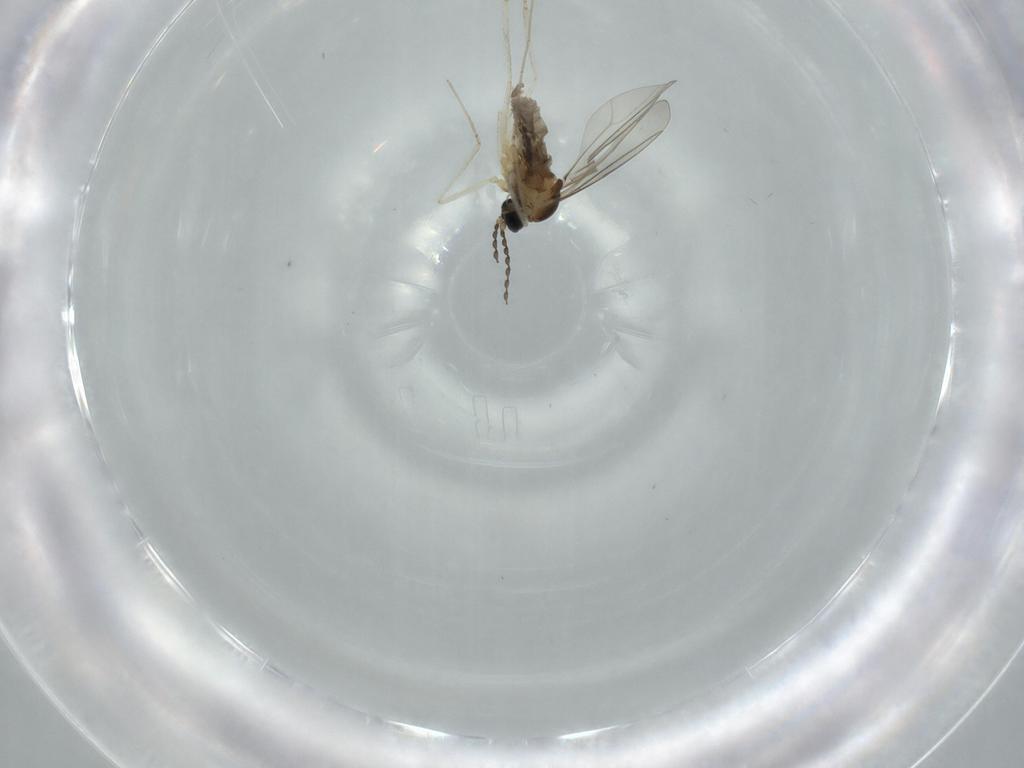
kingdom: Animalia
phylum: Arthropoda
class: Insecta
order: Diptera
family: Cecidomyiidae
